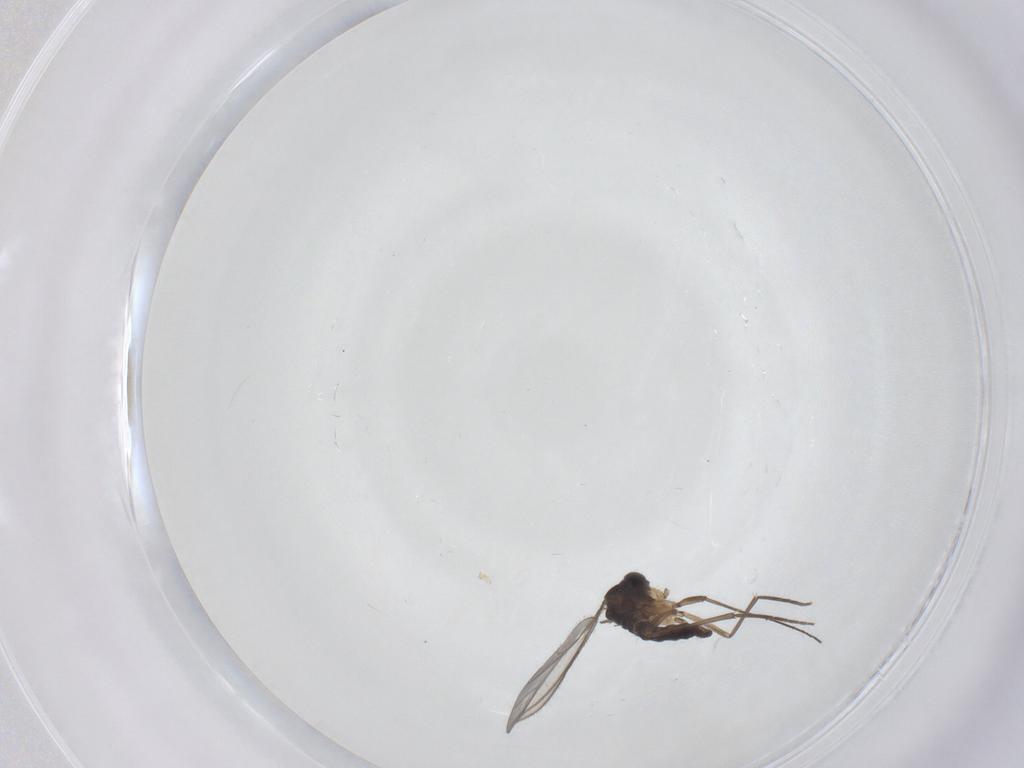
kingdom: Animalia
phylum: Arthropoda
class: Insecta
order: Diptera
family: Sciaridae
